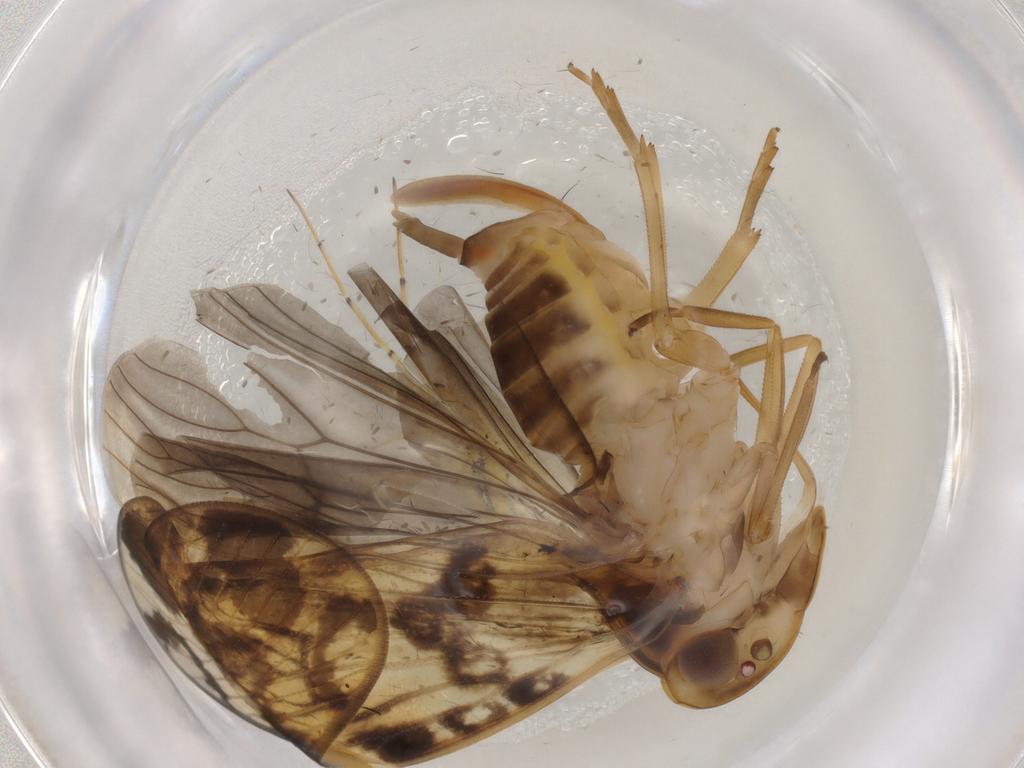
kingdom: Animalia
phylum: Arthropoda
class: Insecta
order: Hemiptera
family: Cixiidae
